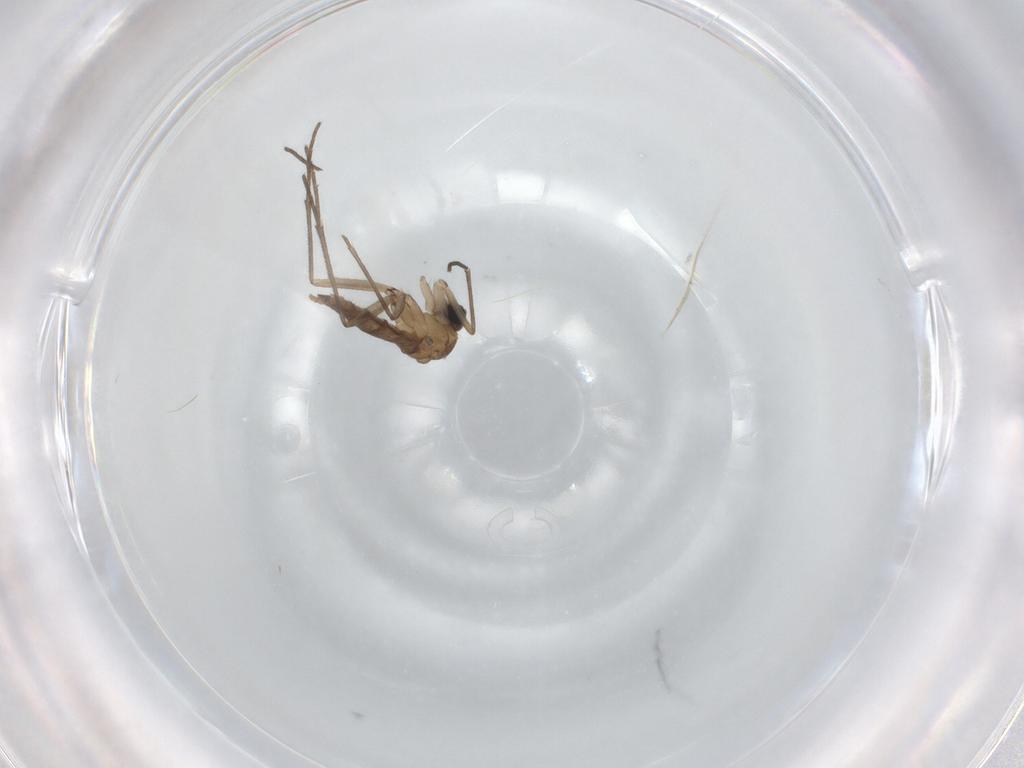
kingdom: Animalia
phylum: Arthropoda
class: Insecta
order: Diptera
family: Sciaridae
